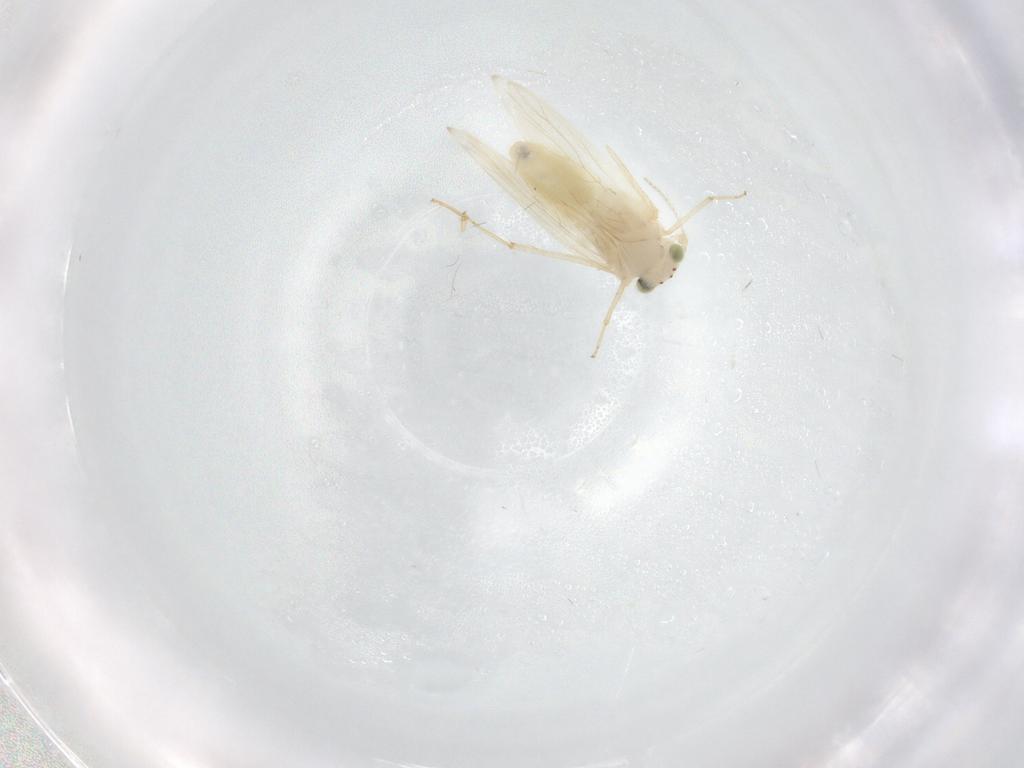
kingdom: Animalia
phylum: Arthropoda
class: Insecta
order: Psocodea
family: Lepidopsocidae
